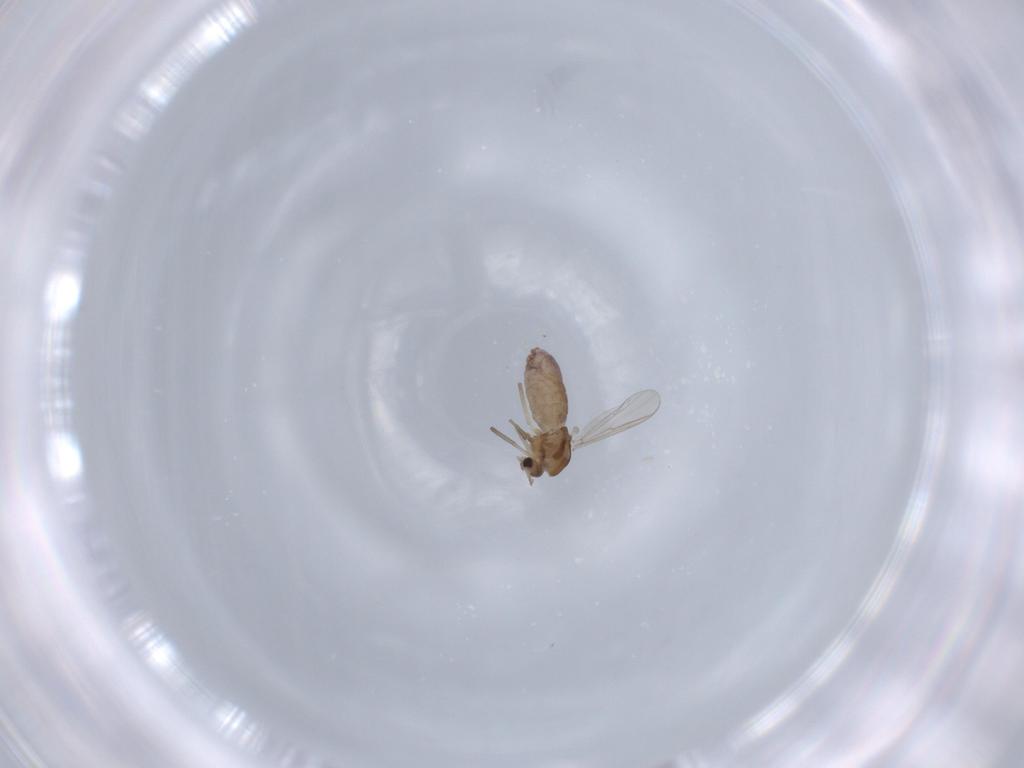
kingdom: Animalia
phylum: Arthropoda
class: Insecta
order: Diptera
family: Chironomidae
